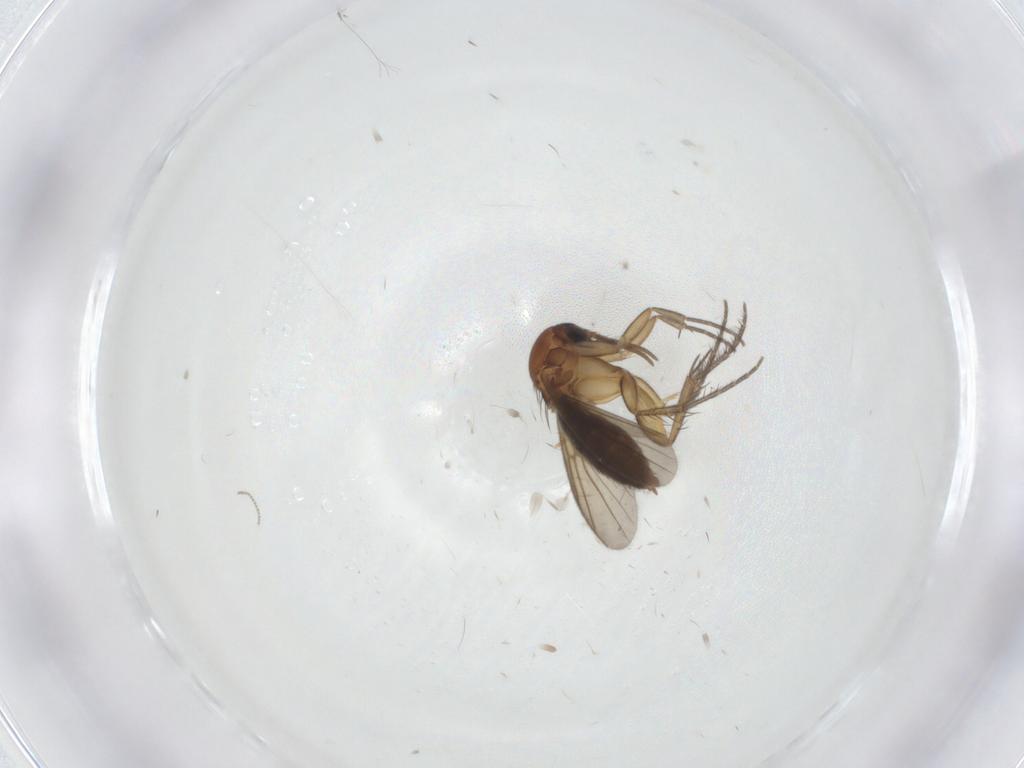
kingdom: Animalia
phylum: Arthropoda
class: Insecta
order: Diptera
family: Mycetophilidae
